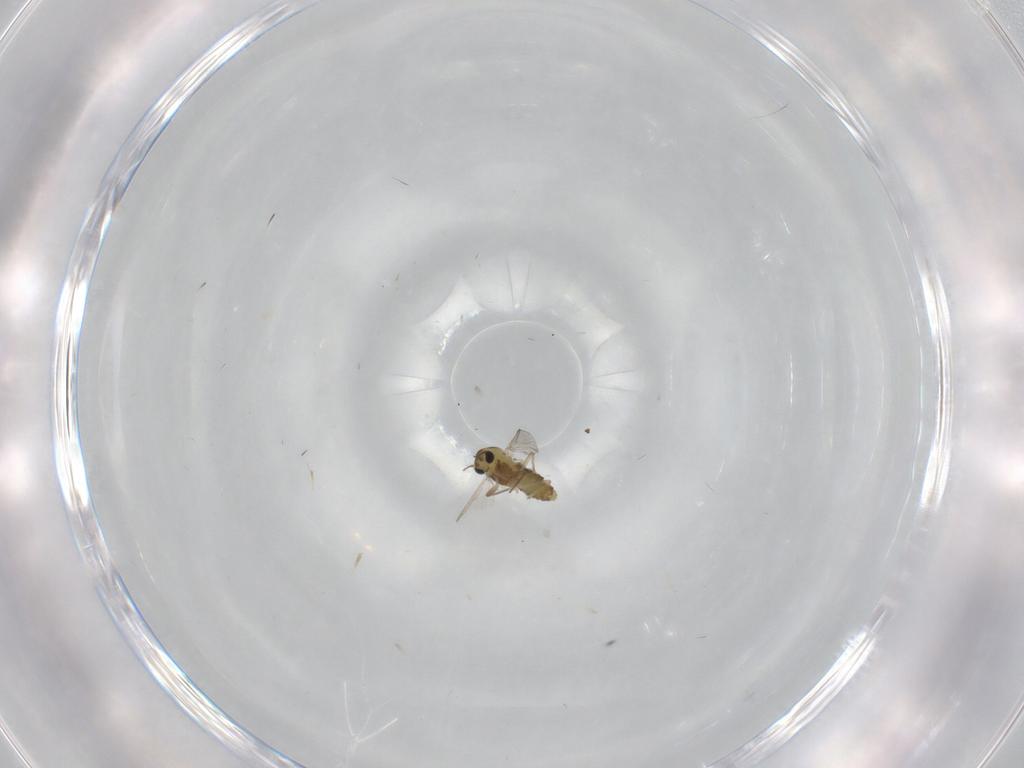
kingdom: Animalia
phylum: Arthropoda
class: Insecta
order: Diptera
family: Chironomidae
